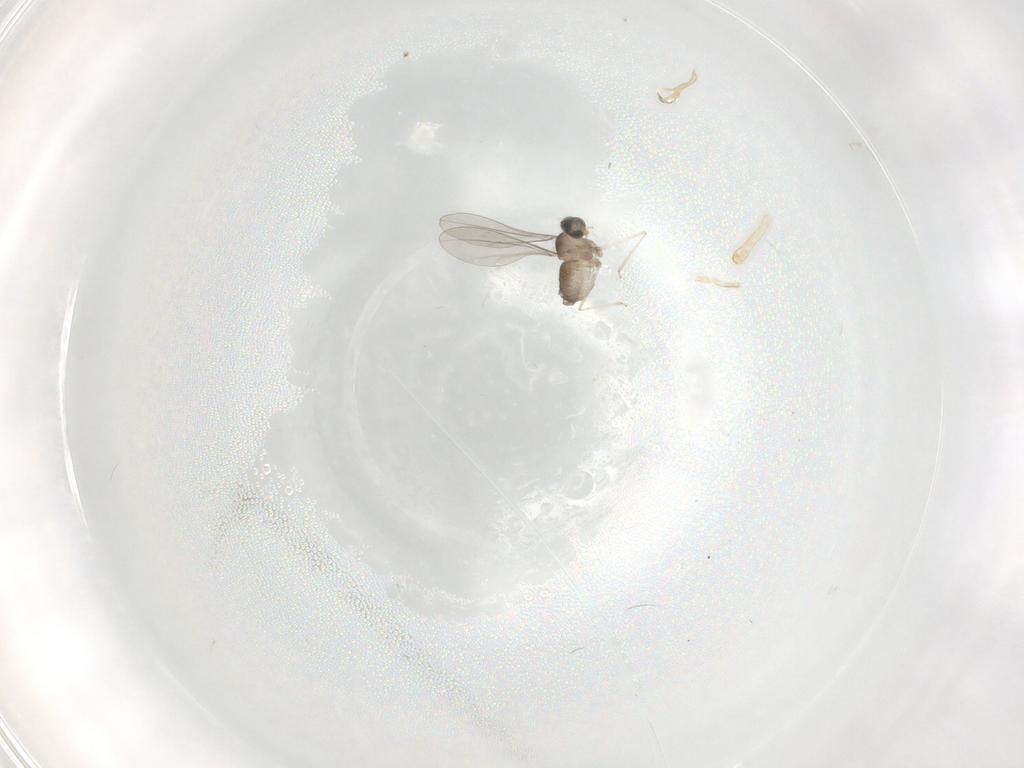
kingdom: Animalia
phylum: Arthropoda
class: Insecta
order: Diptera
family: Cecidomyiidae
